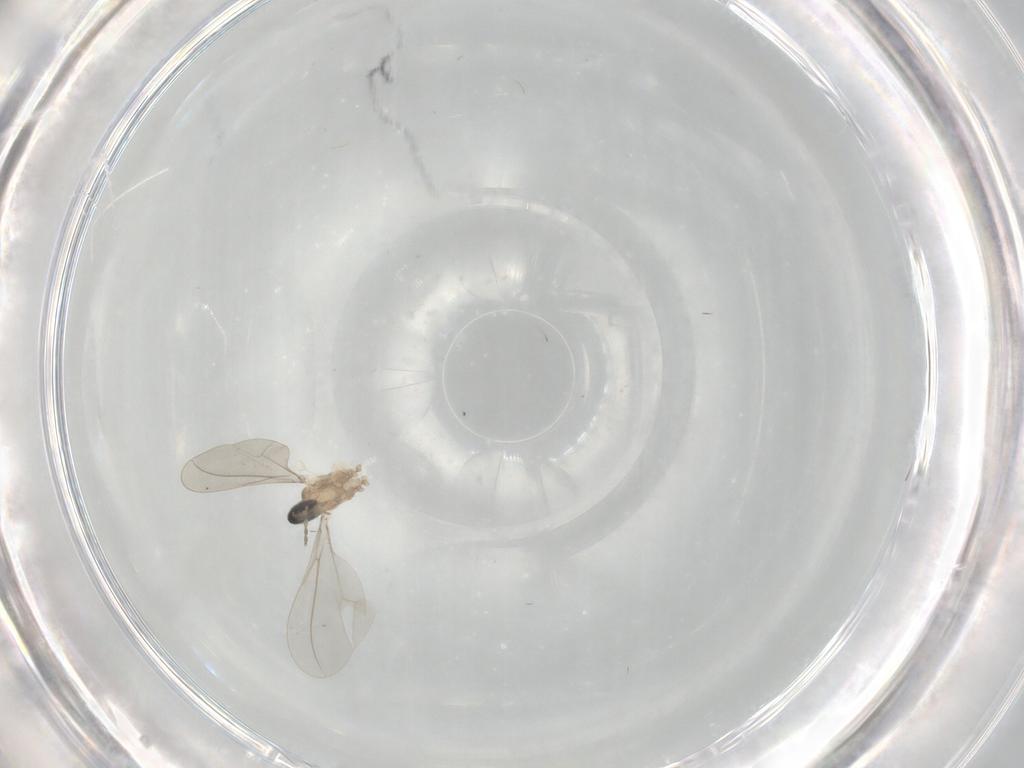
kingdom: Animalia
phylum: Arthropoda
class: Insecta
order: Diptera
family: Cecidomyiidae
